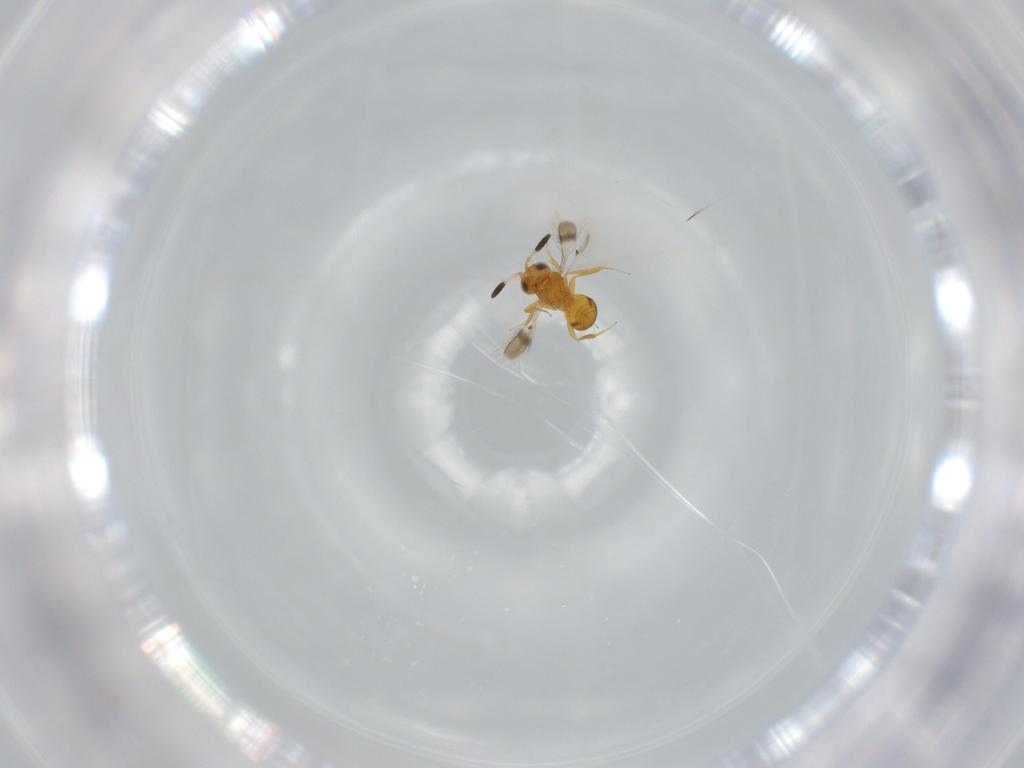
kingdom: Animalia
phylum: Arthropoda
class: Insecta
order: Hymenoptera
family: Scelionidae
